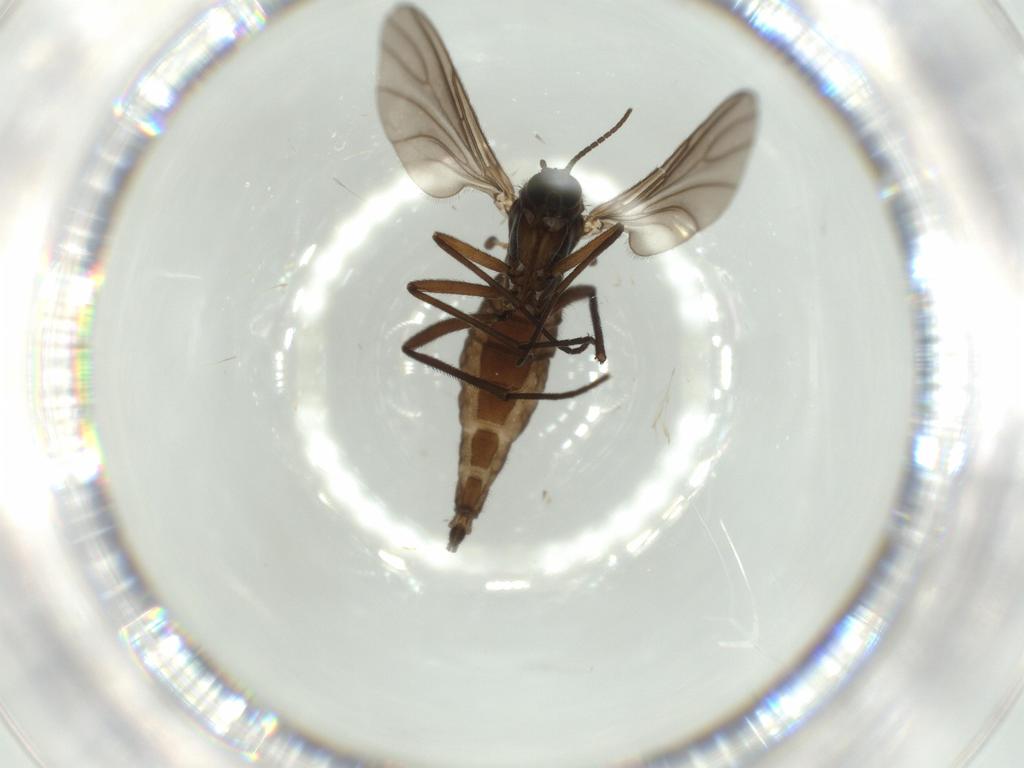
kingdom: Animalia
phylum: Arthropoda
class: Insecta
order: Diptera
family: Sciaridae
